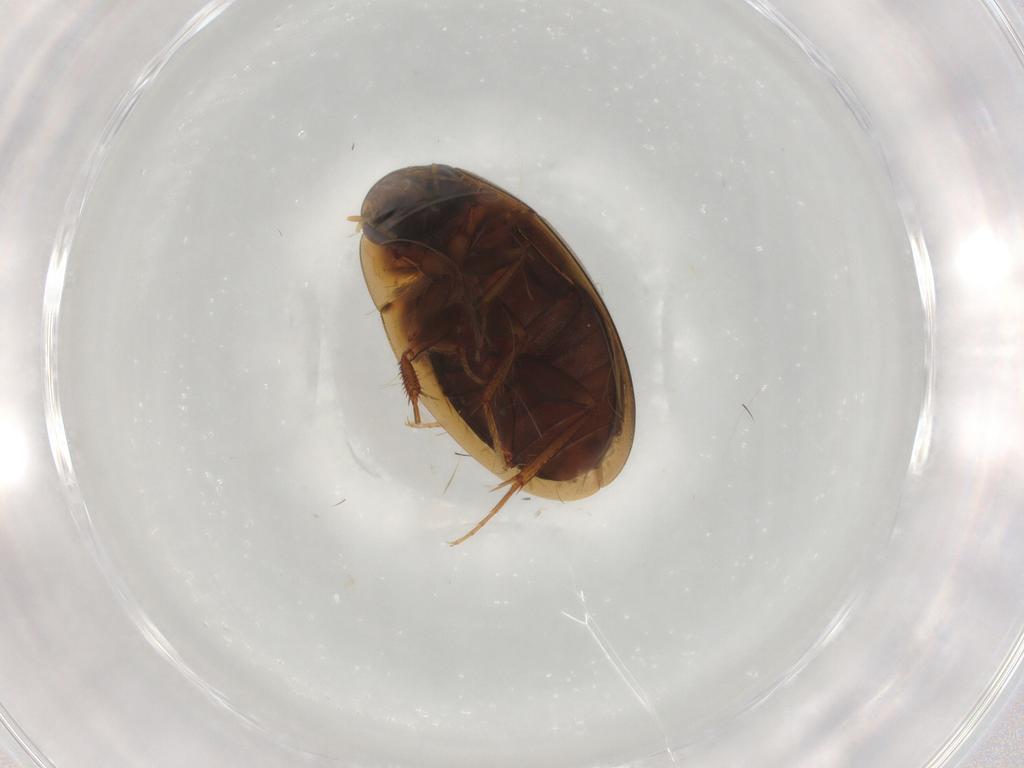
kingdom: Animalia
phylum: Arthropoda
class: Insecta
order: Coleoptera
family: Hydrophilidae
